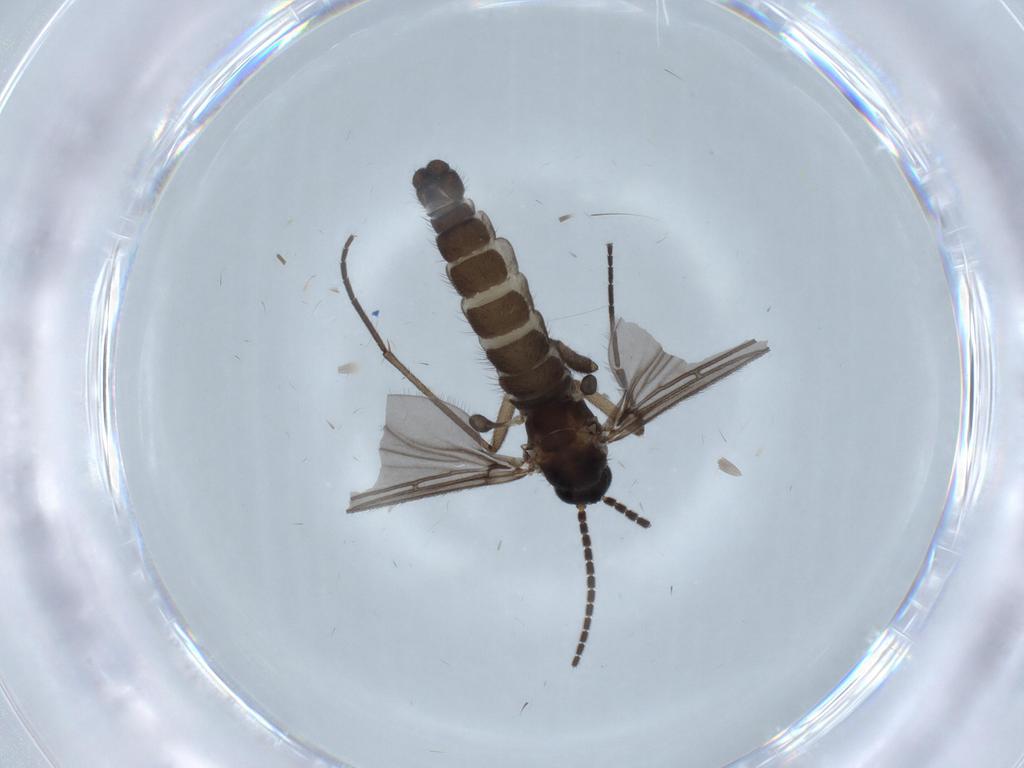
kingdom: Animalia
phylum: Arthropoda
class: Insecta
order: Diptera
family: Sciaridae
